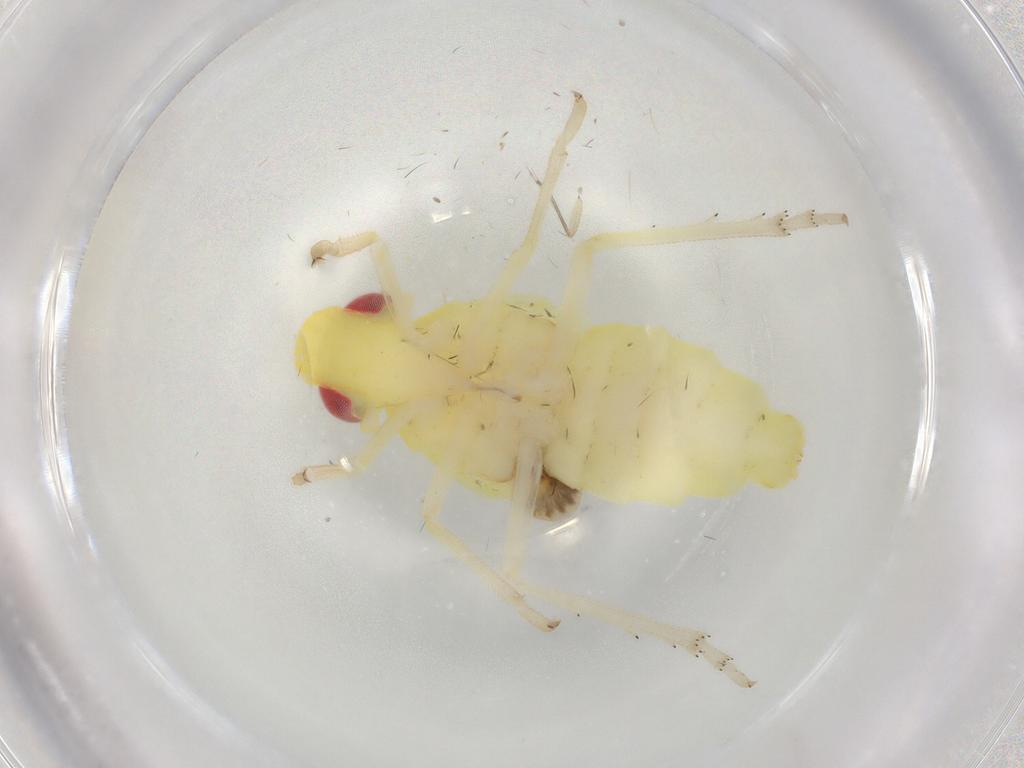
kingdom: Animalia
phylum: Arthropoda
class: Insecta
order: Hemiptera
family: Tropiduchidae
